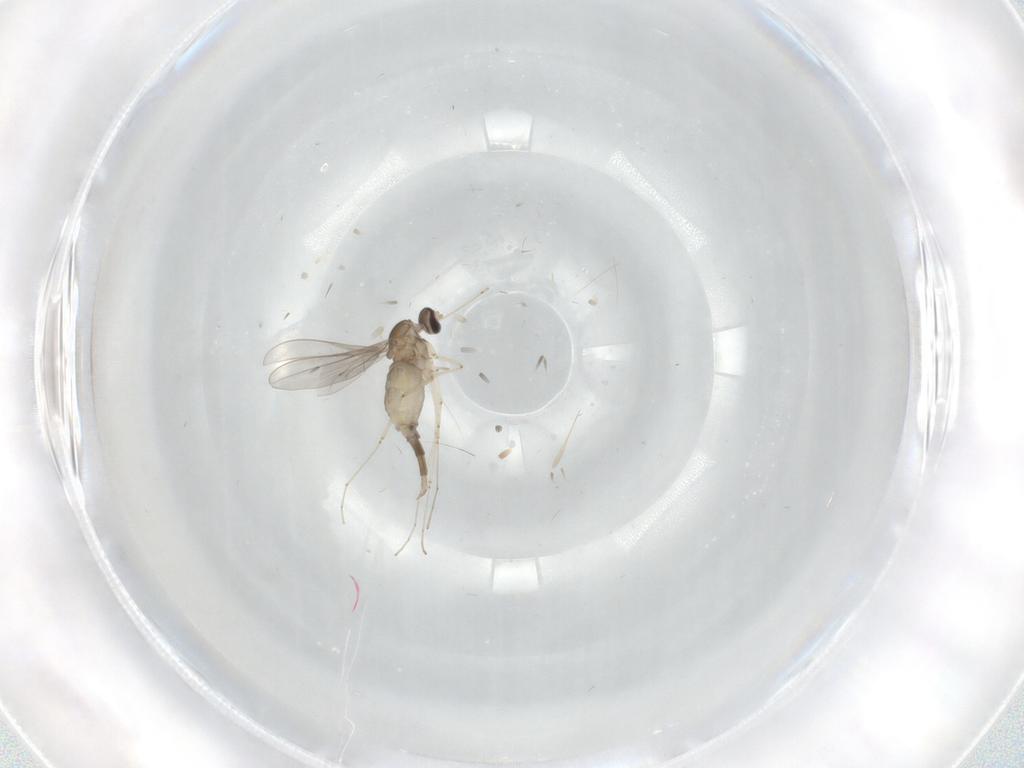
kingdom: Animalia
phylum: Arthropoda
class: Insecta
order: Diptera
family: Cecidomyiidae
